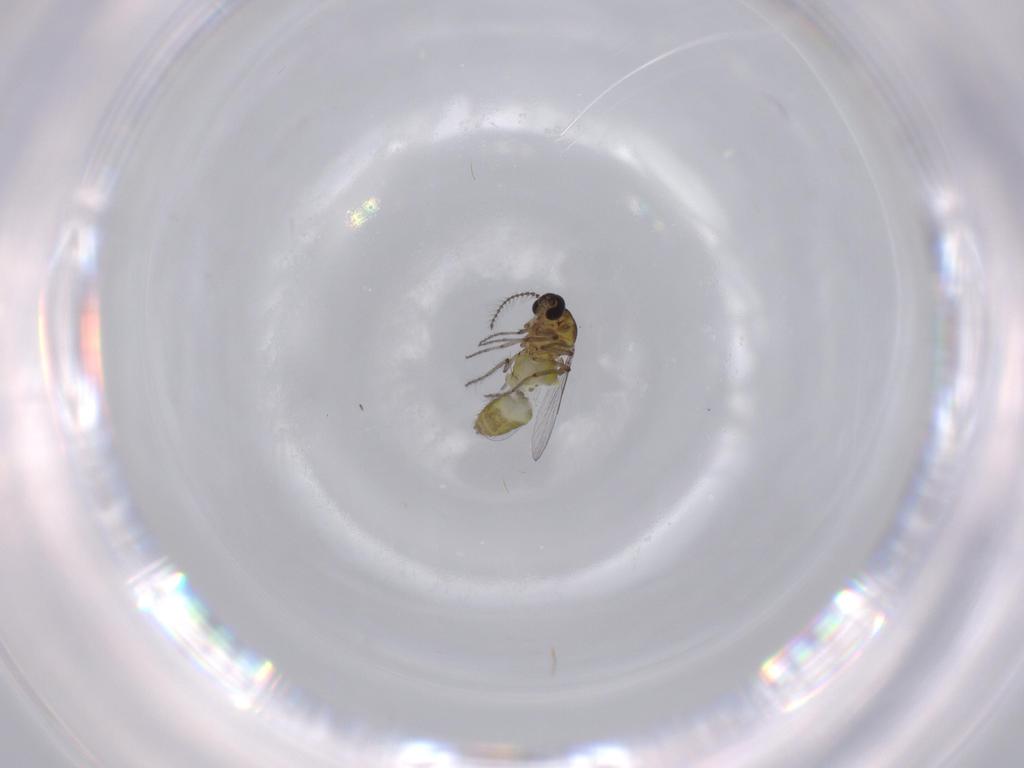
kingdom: Animalia
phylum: Arthropoda
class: Insecta
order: Diptera
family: Ceratopogonidae
